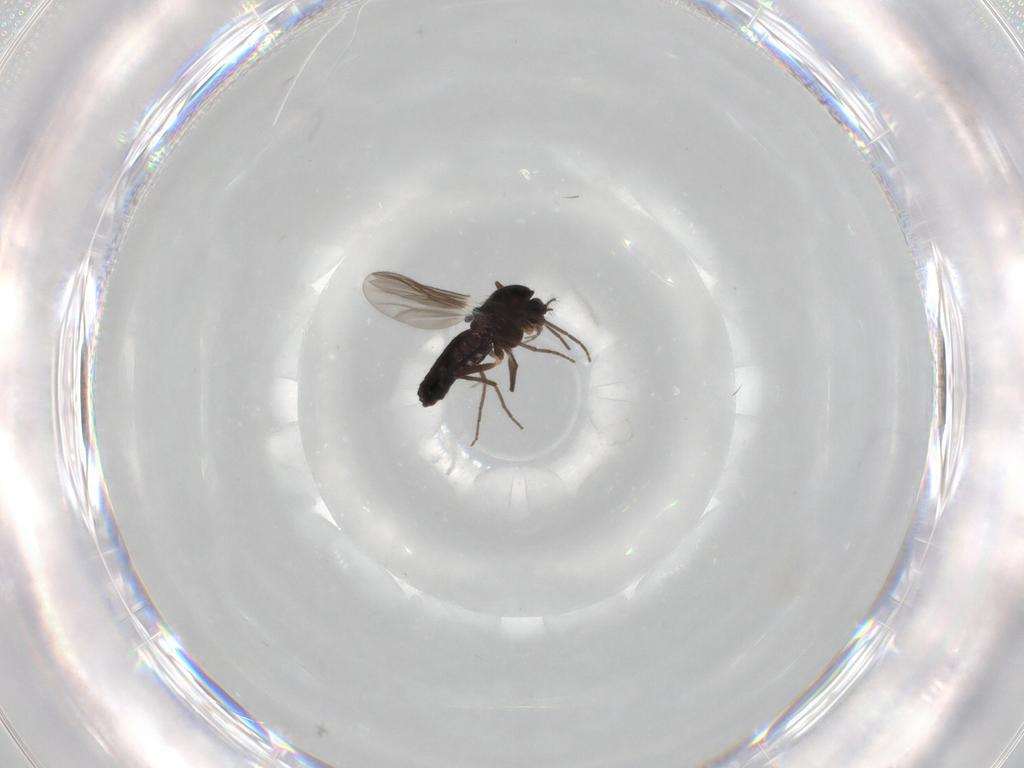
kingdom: Animalia
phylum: Arthropoda
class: Insecta
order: Diptera
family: Chironomidae
